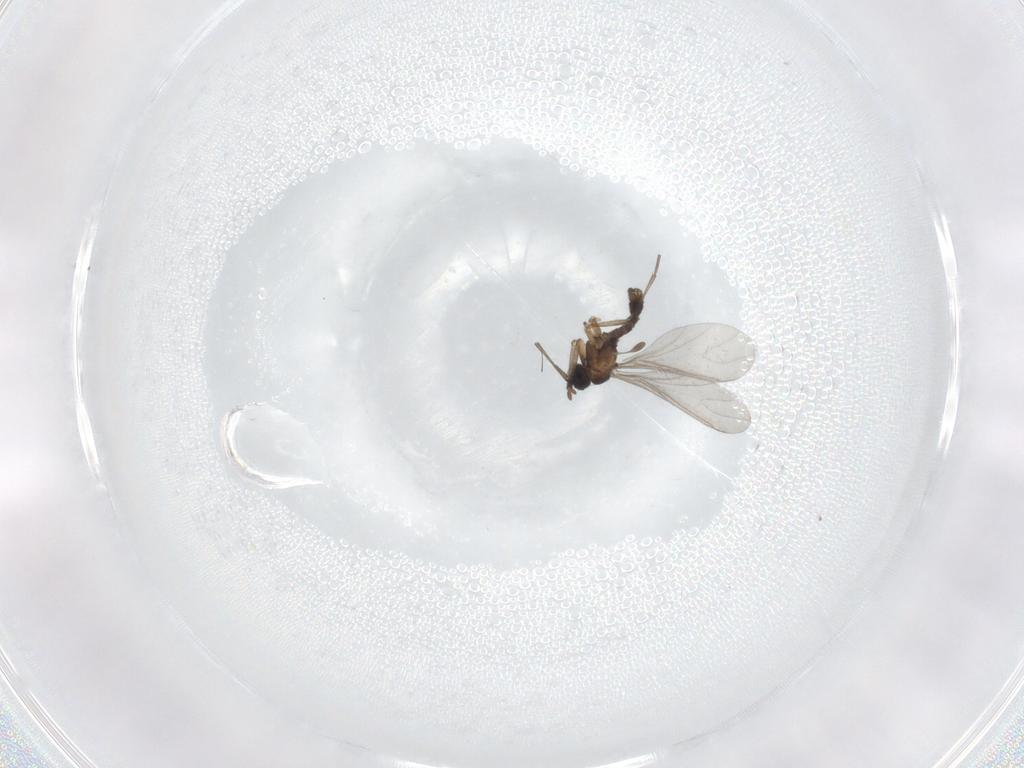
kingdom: Animalia
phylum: Arthropoda
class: Insecta
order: Diptera
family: Sciaridae
